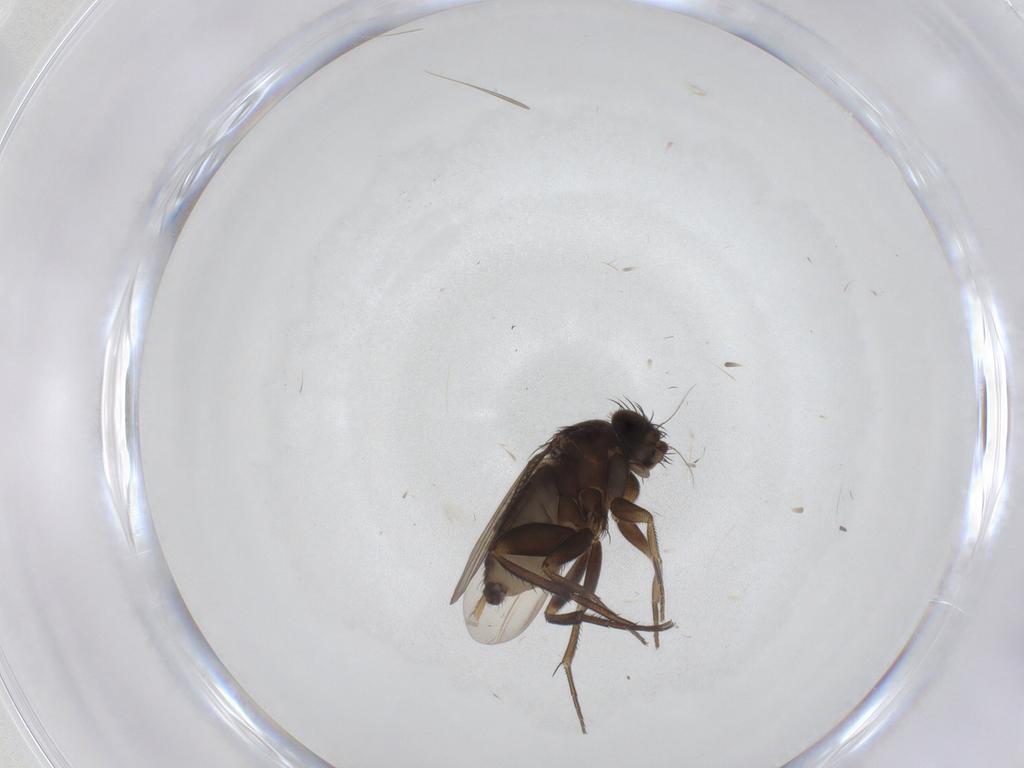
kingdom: Animalia
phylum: Arthropoda
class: Insecta
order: Diptera
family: Phoridae
